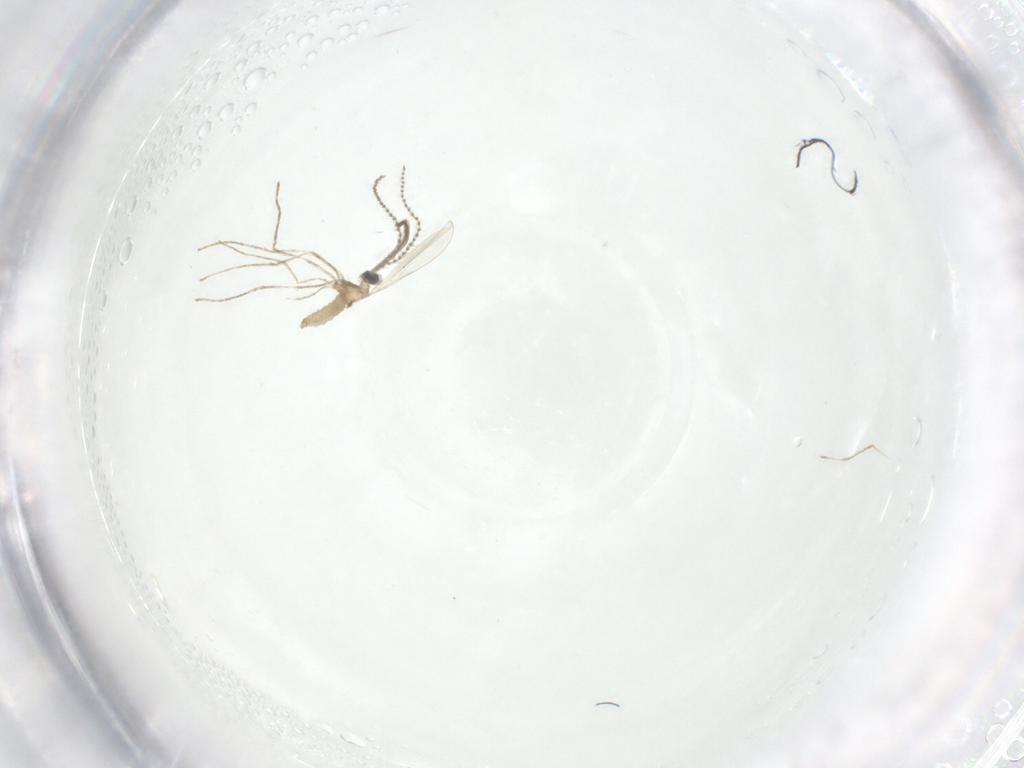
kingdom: Animalia
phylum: Arthropoda
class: Insecta
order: Diptera
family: Cecidomyiidae
